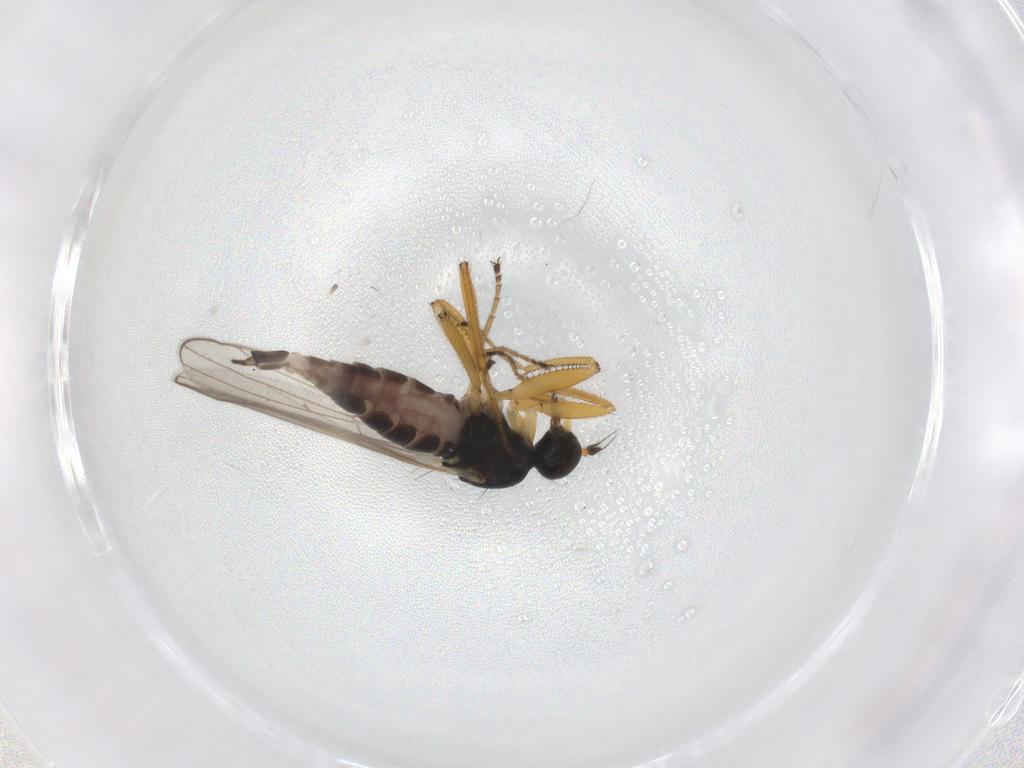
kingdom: Animalia
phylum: Arthropoda
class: Insecta
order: Diptera
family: Hybotidae
